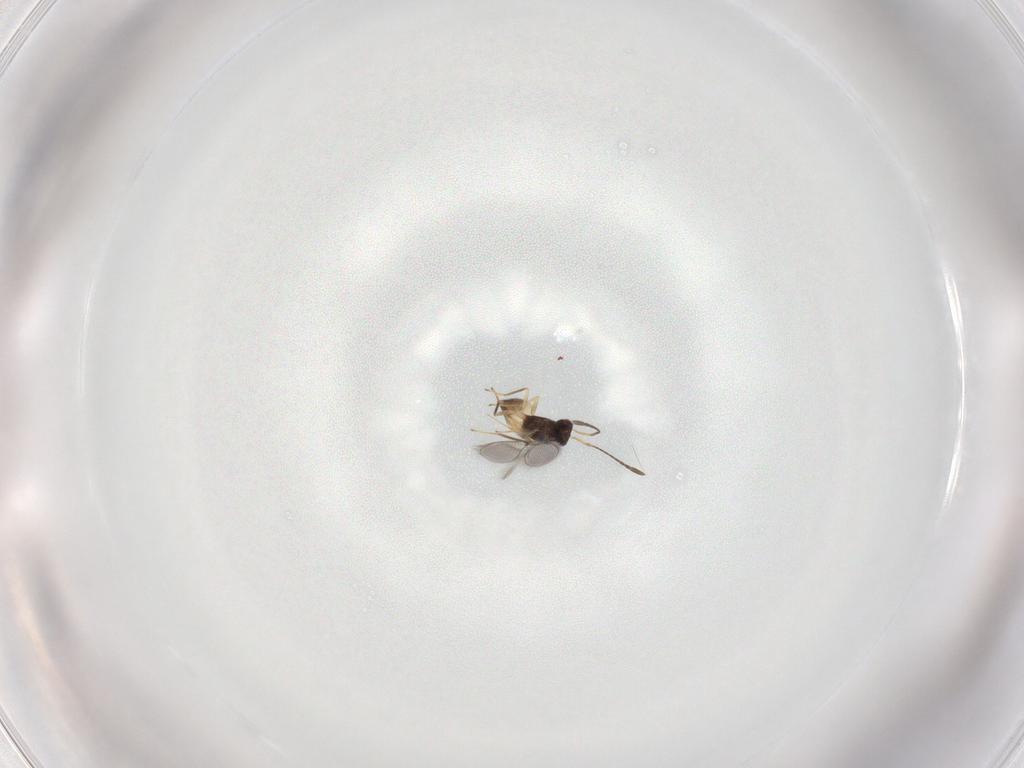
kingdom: Animalia
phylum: Arthropoda
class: Insecta
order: Hymenoptera
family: Mymaridae
